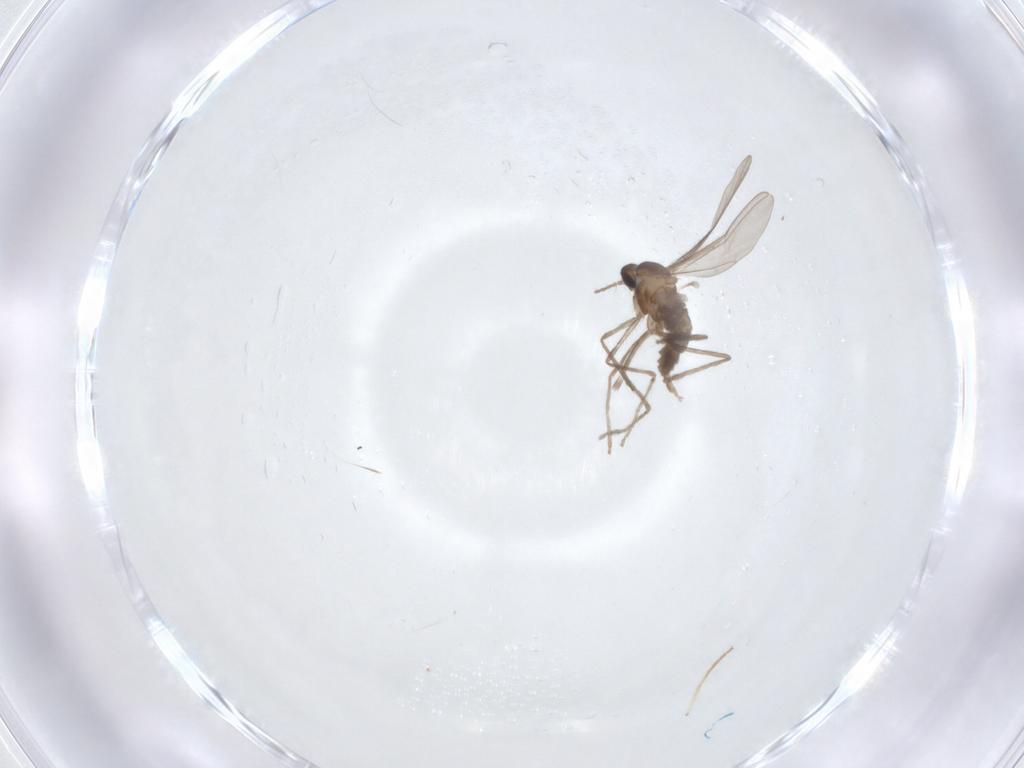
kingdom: Animalia
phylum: Arthropoda
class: Insecta
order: Diptera
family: Cecidomyiidae
